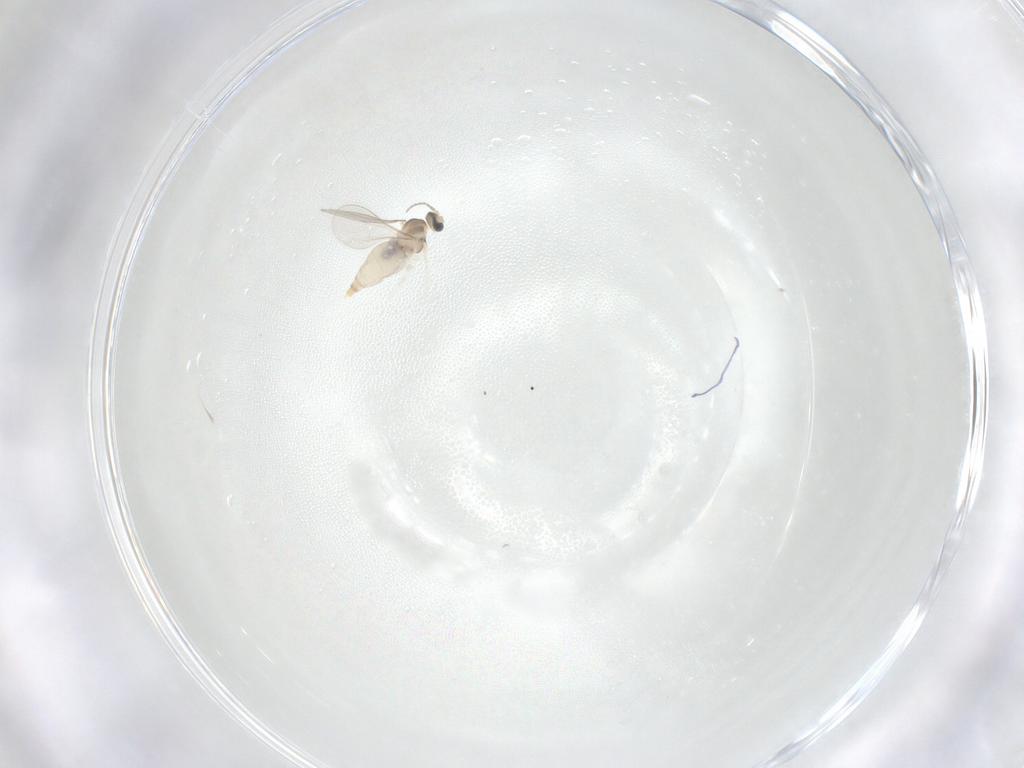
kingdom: Animalia
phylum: Arthropoda
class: Insecta
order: Diptera
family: Cecidomyiidae
